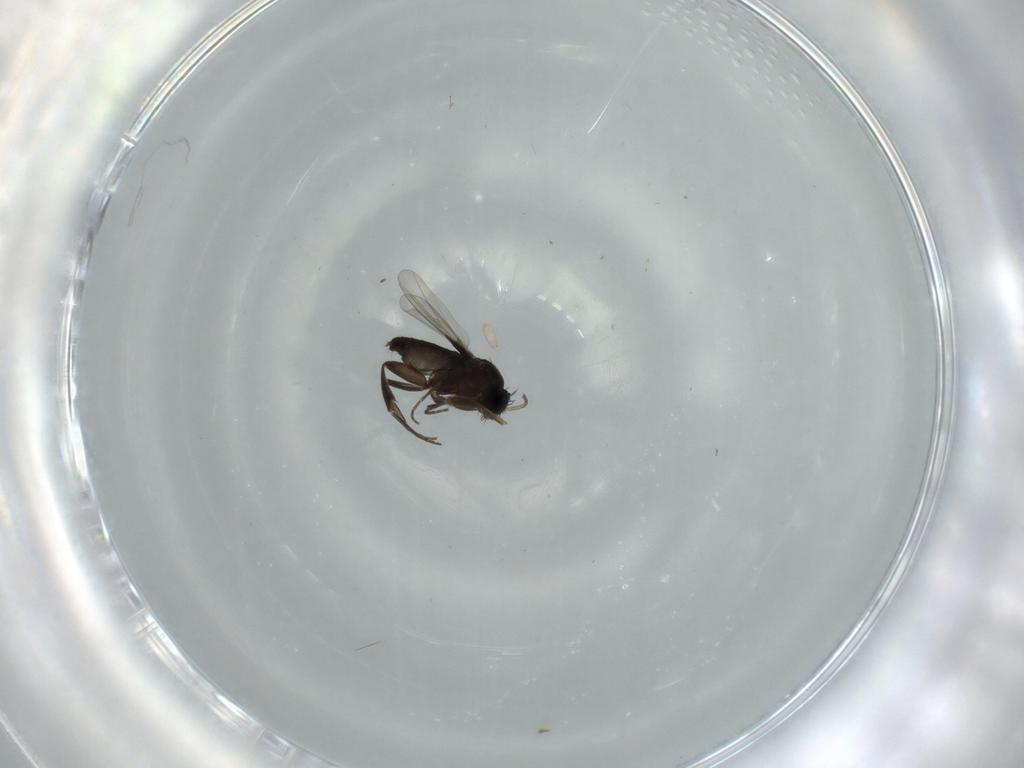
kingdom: Animalia
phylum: Arthropoda
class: Insecta
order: Diptera
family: Phoridae
